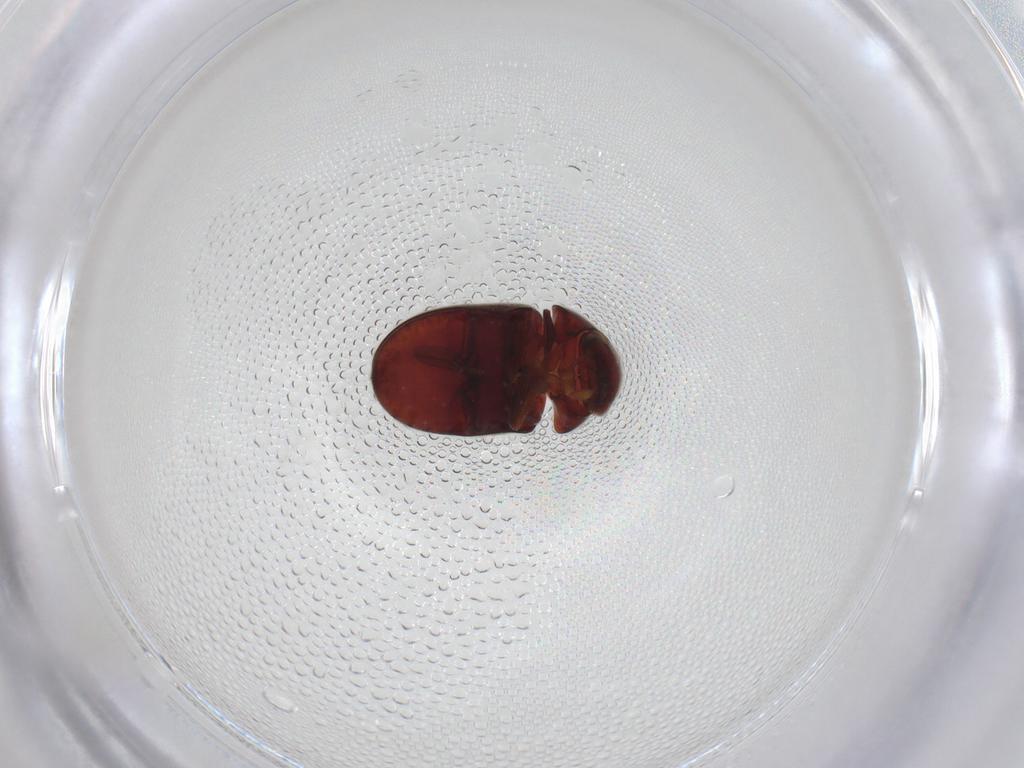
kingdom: Animalia
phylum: Arthropoda
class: Insecta
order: Coleoptera
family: Ptinidae
